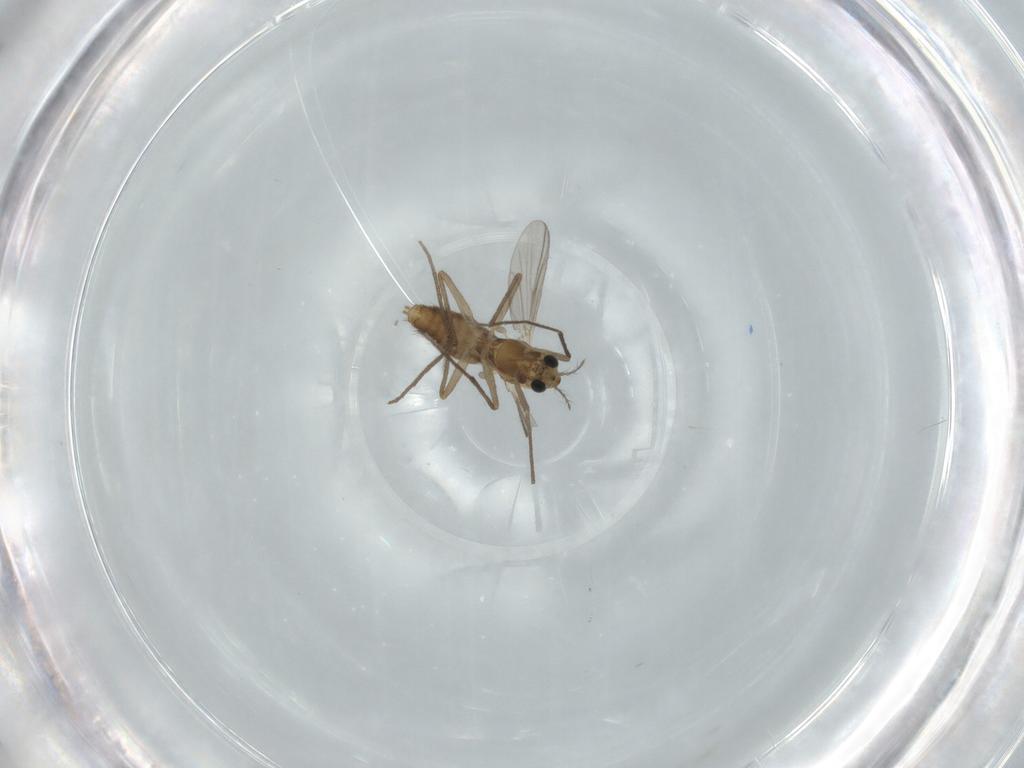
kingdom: Animalia
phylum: Arthropoda
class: Insecta
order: Diptera
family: Chironomidae
